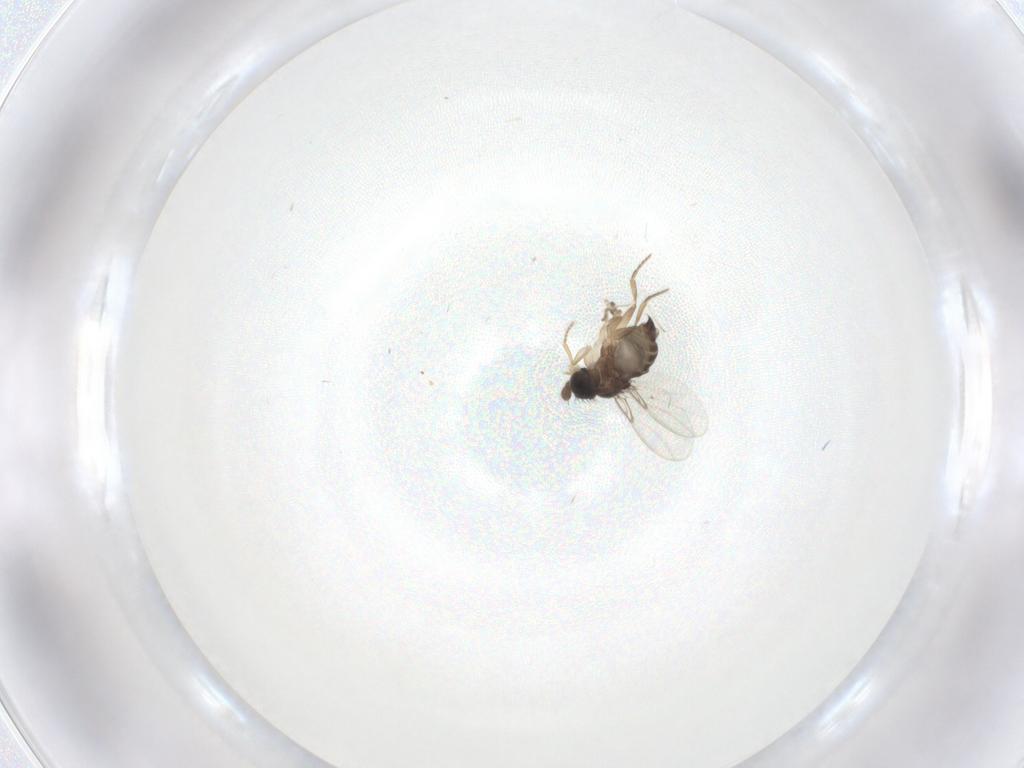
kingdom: Animalia
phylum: Arthropoda
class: Insecta
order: Diptera
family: Phoridae
